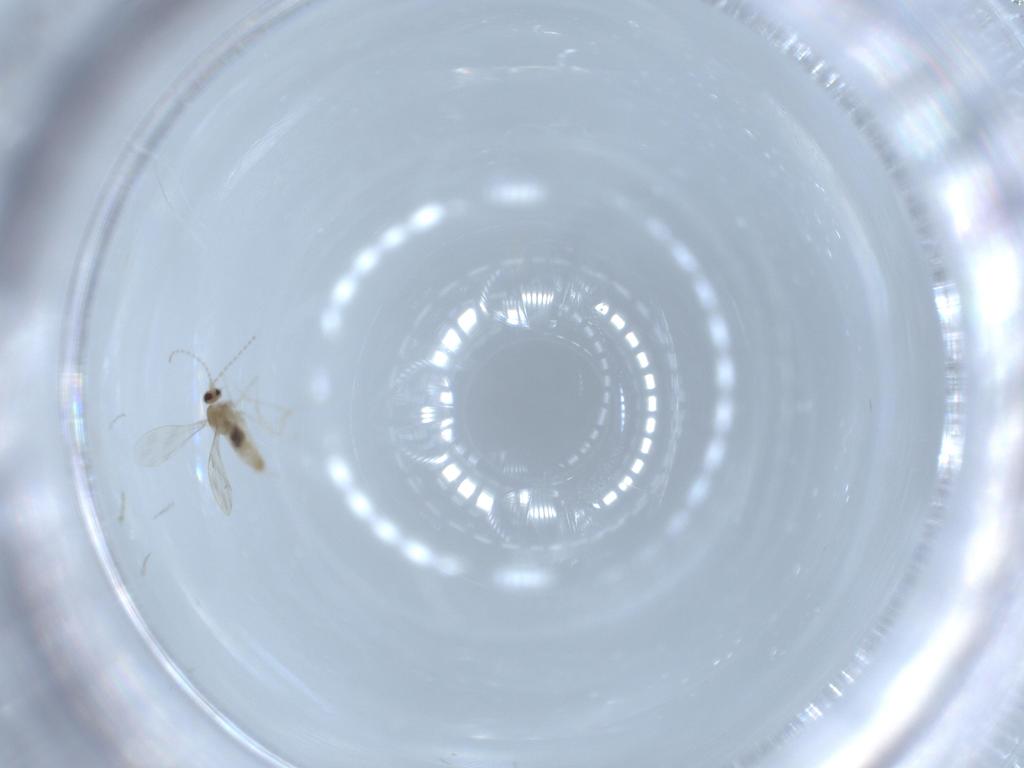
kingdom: Animalia
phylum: Arthropoda
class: Insecta
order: Diptera
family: Cecidomyiidae
